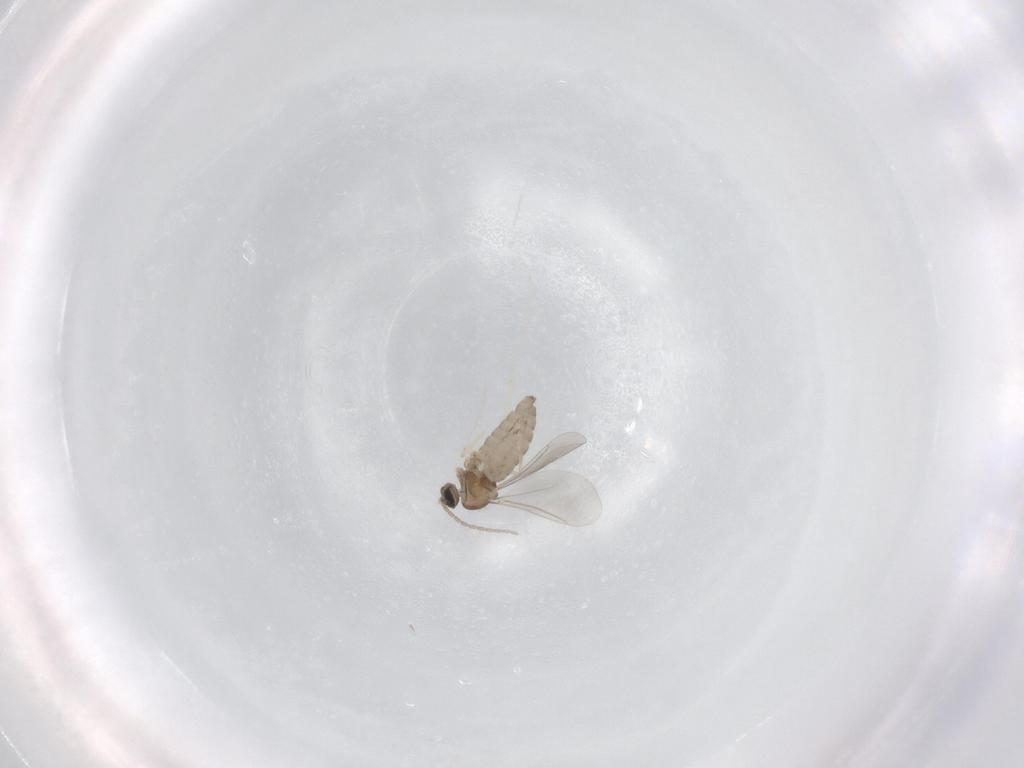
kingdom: Animalia
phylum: Arthropoda
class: Insecta
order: Diptera
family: Cecidomyiidae
